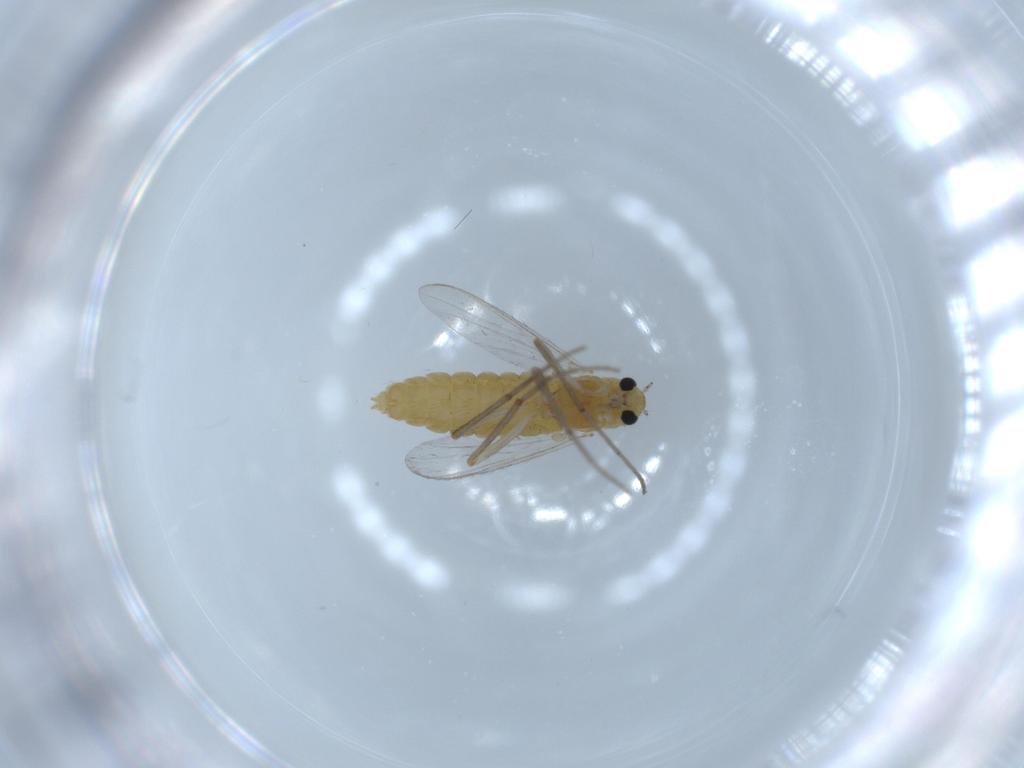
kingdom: Animalia
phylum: Arthropoda
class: Insecta
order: Diptera
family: Chironomidae
